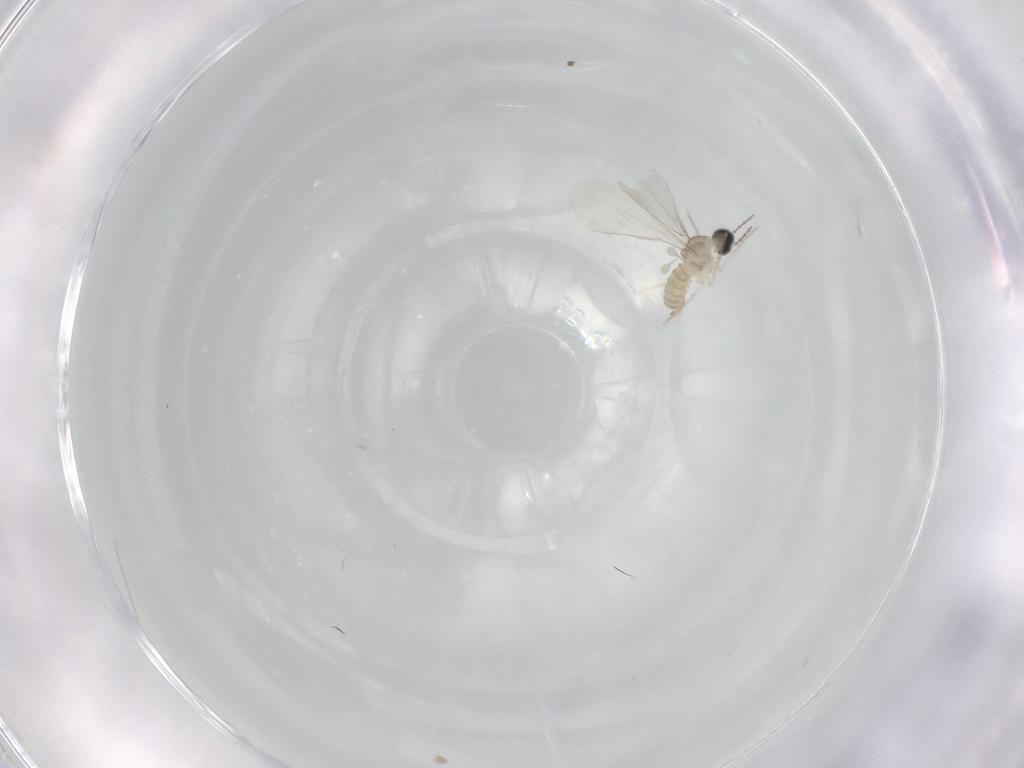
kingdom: Animalia
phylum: Arthropoda
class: Insecta
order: Diptera
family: Cecidomyiidae
